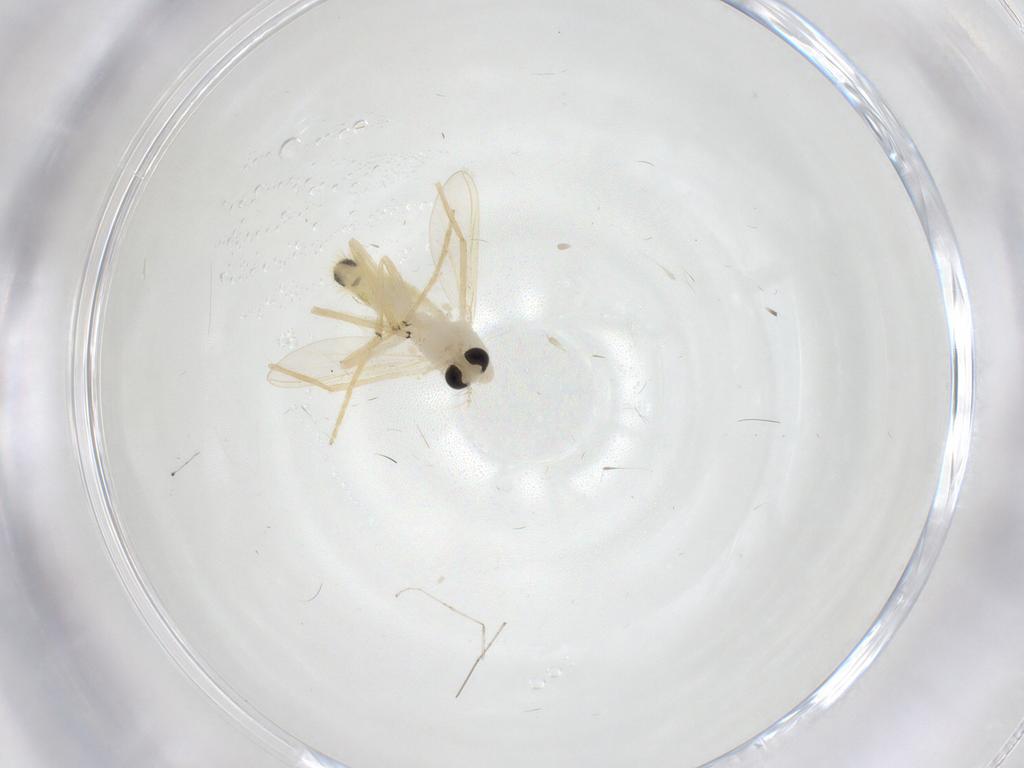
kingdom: Animalia
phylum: Arthropoda
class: Insecta
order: Diptera
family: Chironomidae
